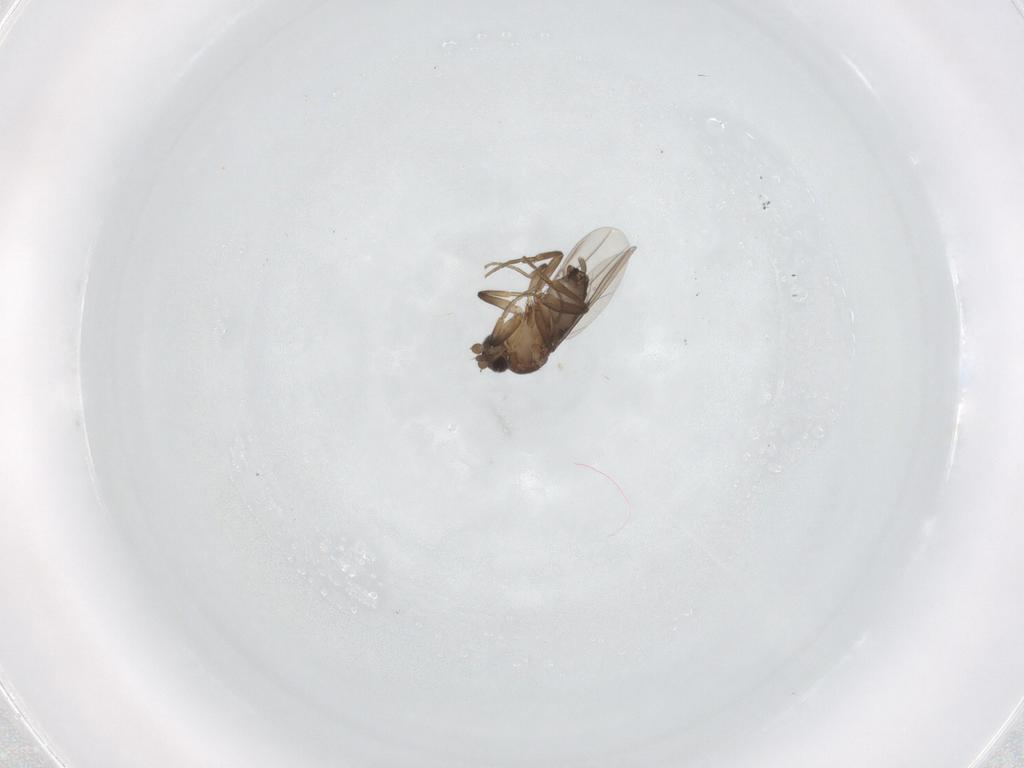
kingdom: Animalia
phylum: Arthropoda
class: Insecta
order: Diptera
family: Phoridae
